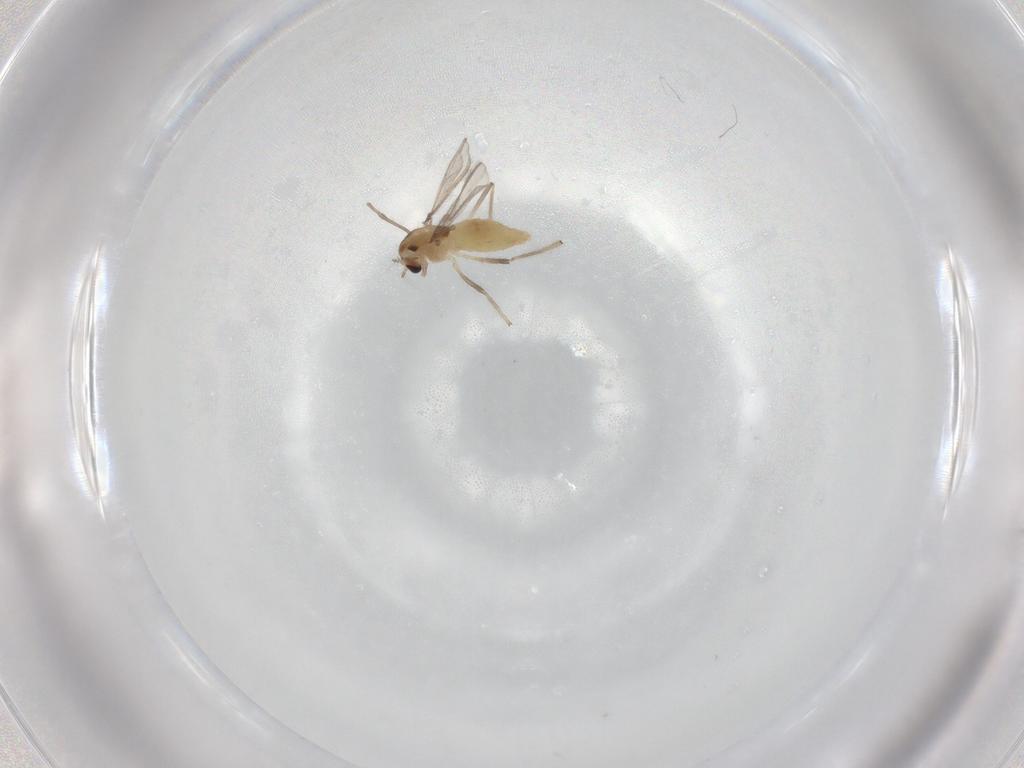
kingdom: Animalia
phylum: Arthropoda
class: Insecta
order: Diptera
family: Chironomidae
